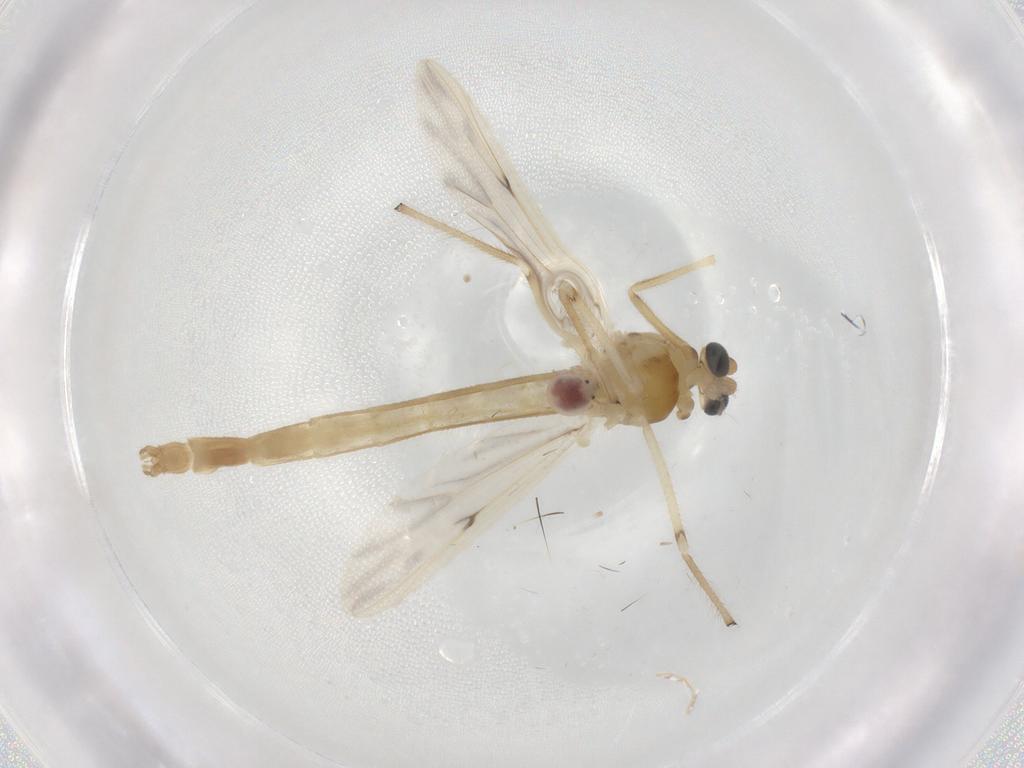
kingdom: Animalia
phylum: Arthropoda
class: Insecta
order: Diptera
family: Chironomidae
